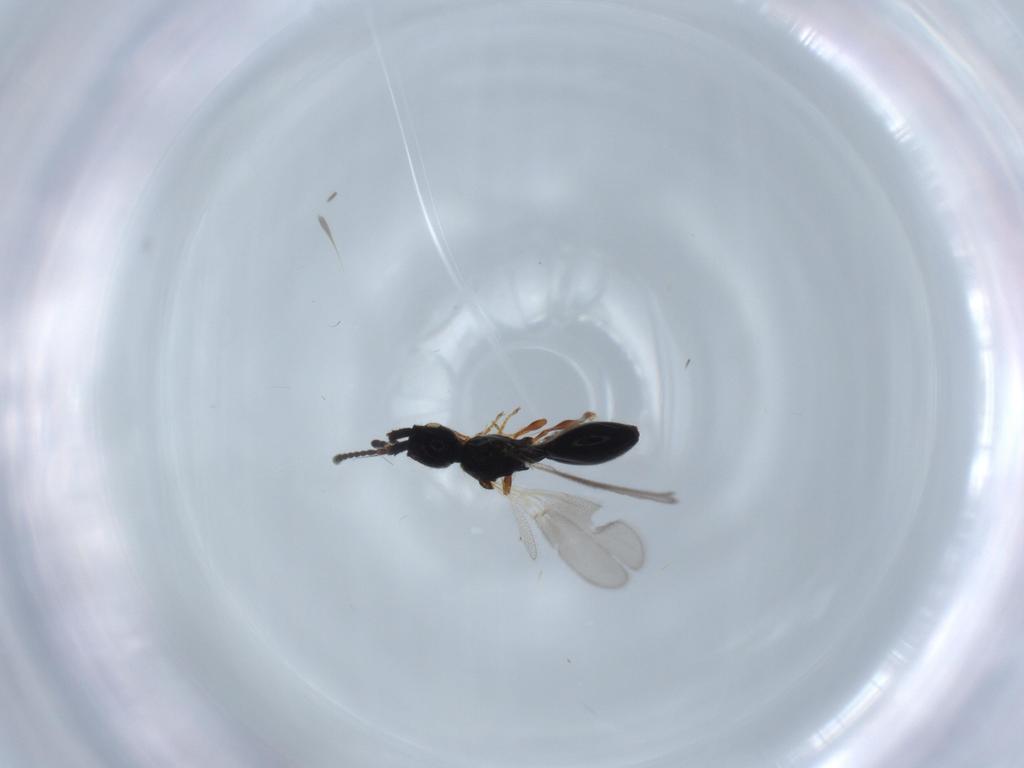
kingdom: Animalia
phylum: Arthropoda
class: Insecta
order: Hymenoptera
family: Diapriidae
